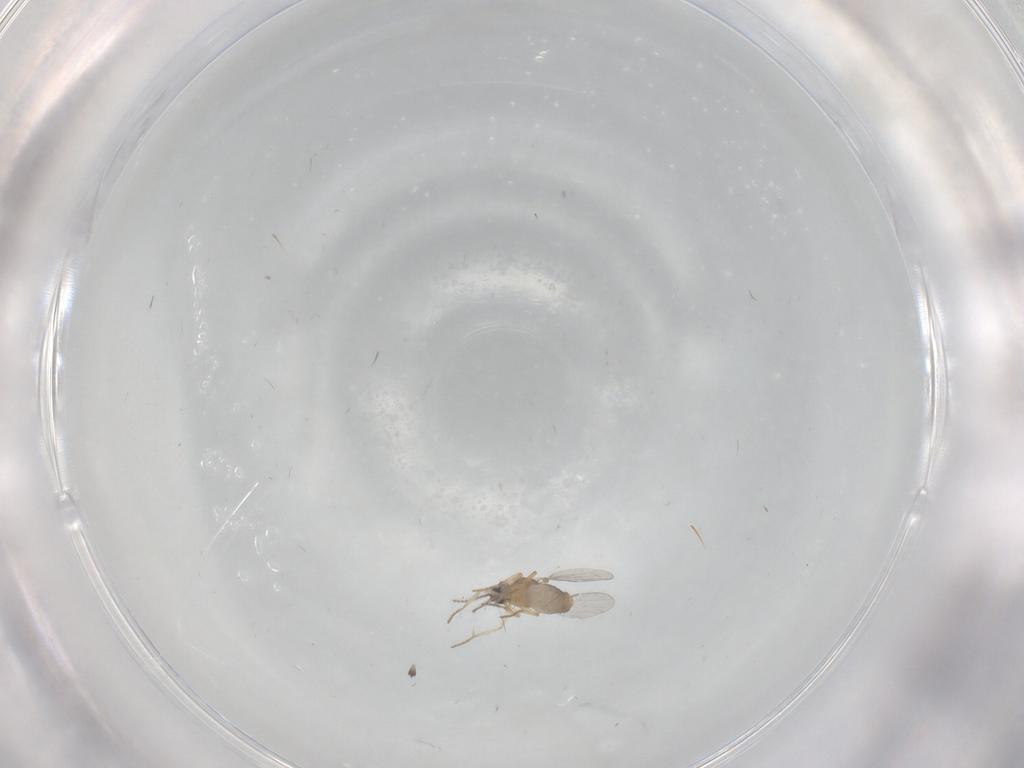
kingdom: Animalia
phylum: Arthropoda
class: Insecta
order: Diptera
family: Ceratopogonidae
